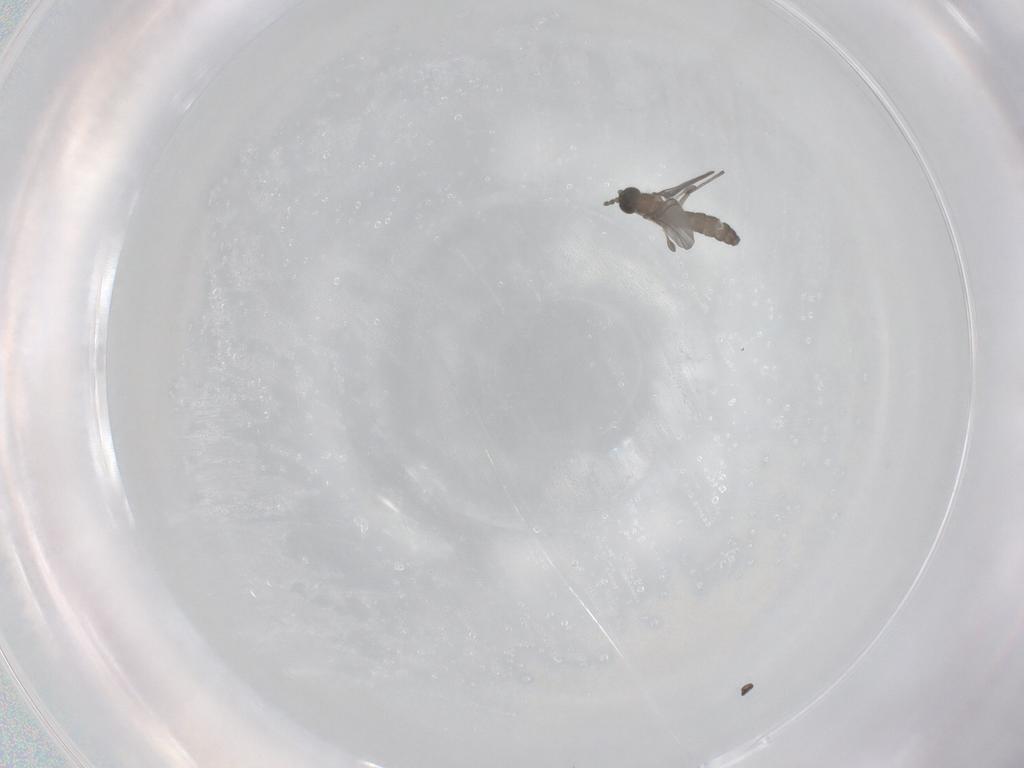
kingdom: Animalia
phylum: Arthropoda
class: Insecta
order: Diptera
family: Sciaridae
